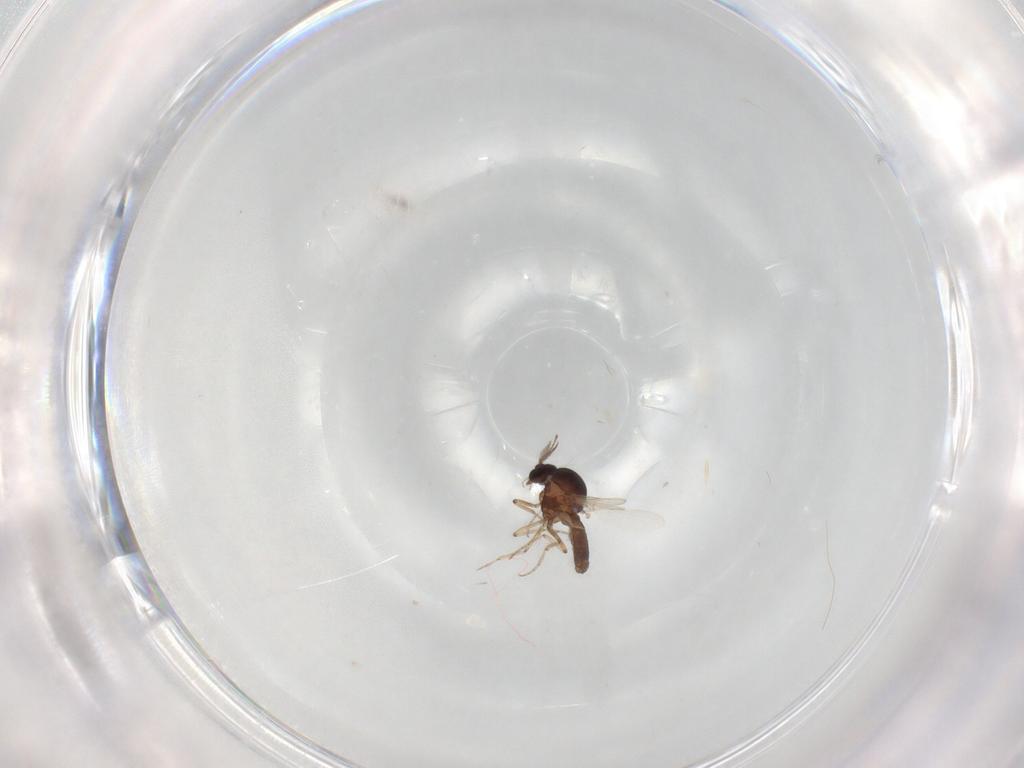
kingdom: Animalia
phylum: Arthropoda
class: Insecta
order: Diptera
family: Ceratopogonidae
